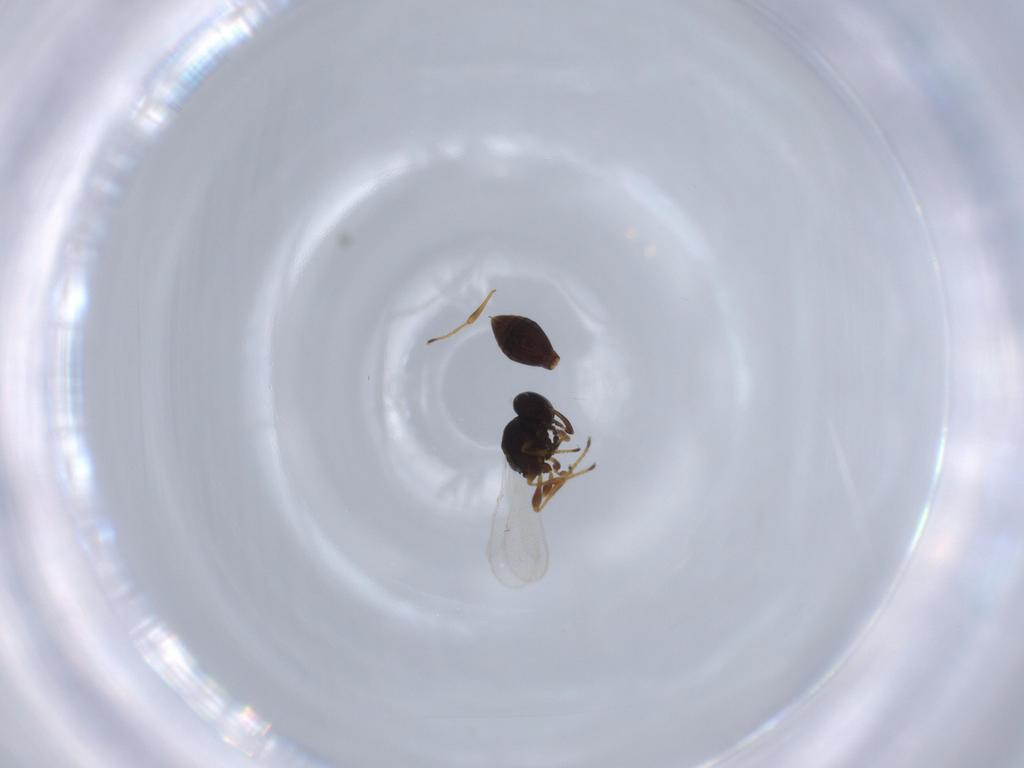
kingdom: Animalia
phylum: Arthropoda
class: Insecta
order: Hymenoptera
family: Platygastridae
